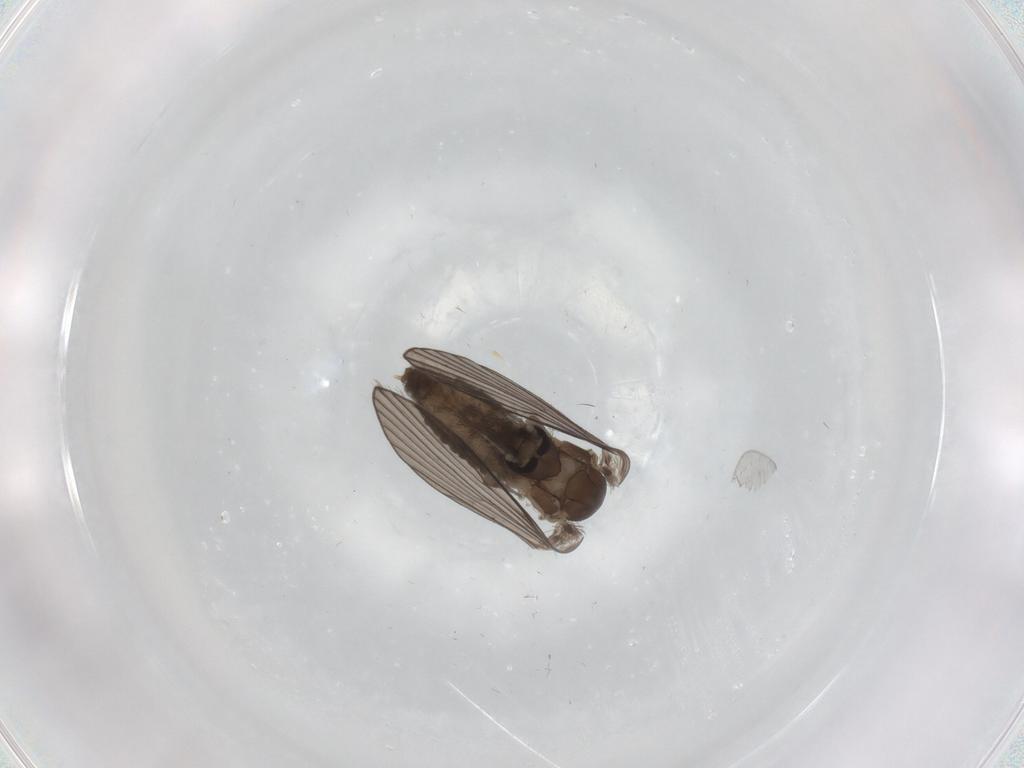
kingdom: Animalia
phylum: Arthropoda
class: Insecta
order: Diptera
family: Psychodidae
